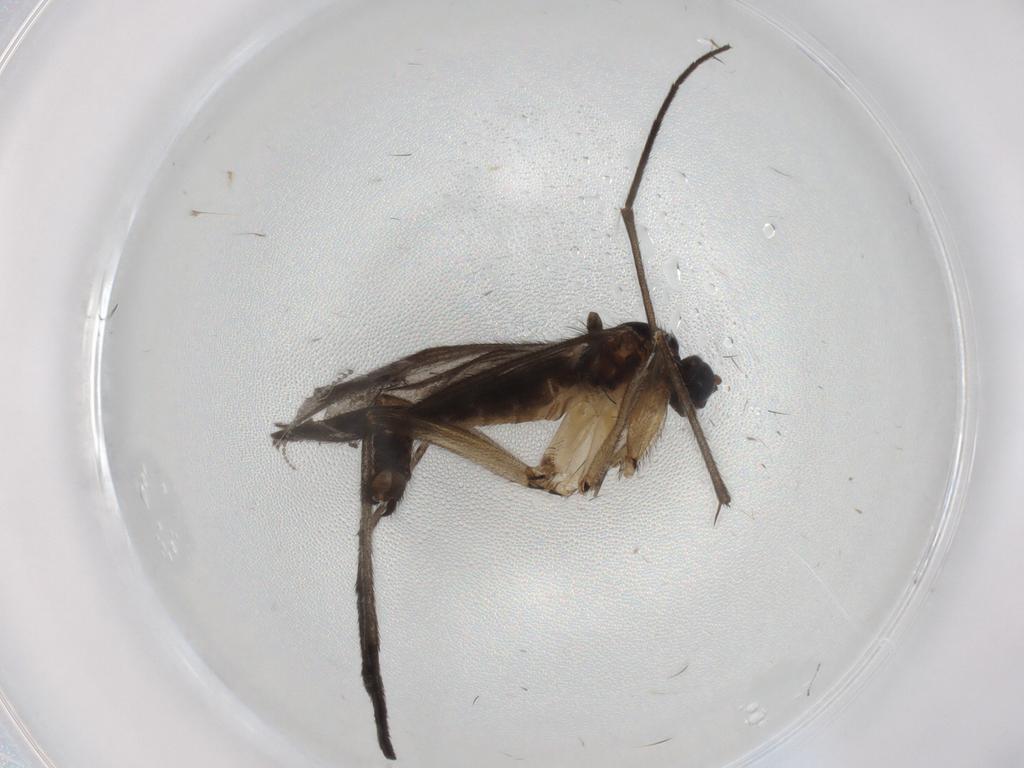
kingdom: Animalia
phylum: Arthropoda
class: Insecta
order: Diptera
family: Sciaridae
